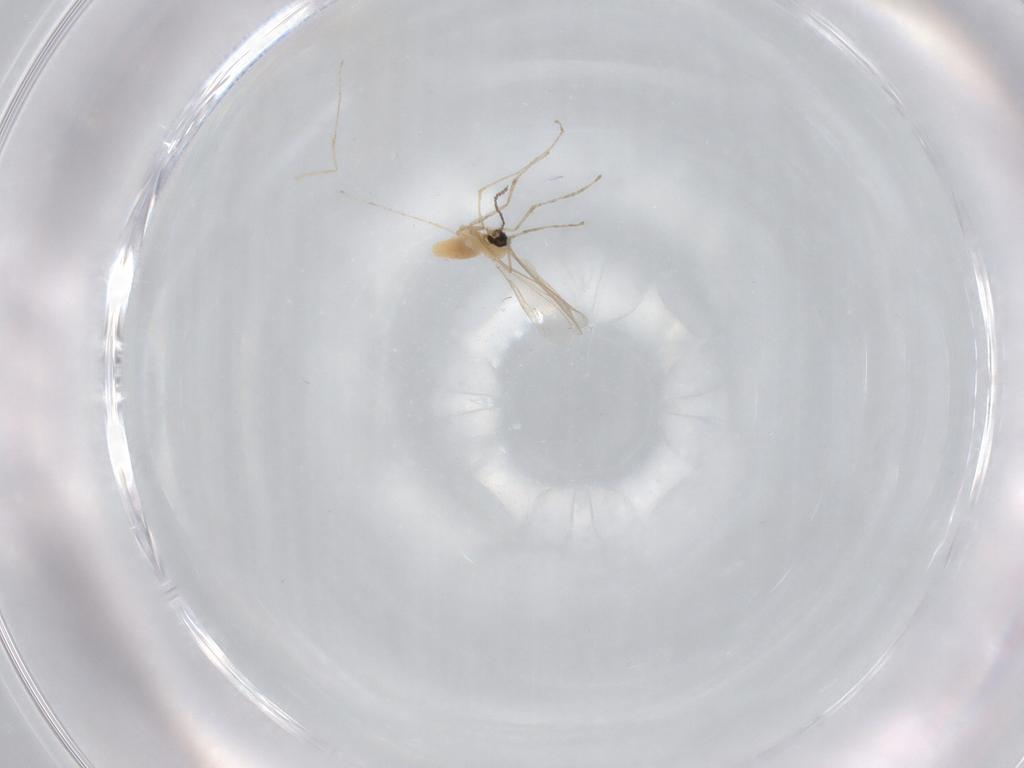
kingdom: Animalia
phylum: Arthropoda
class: Insecta
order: Diptera
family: Cecidomyiidae
